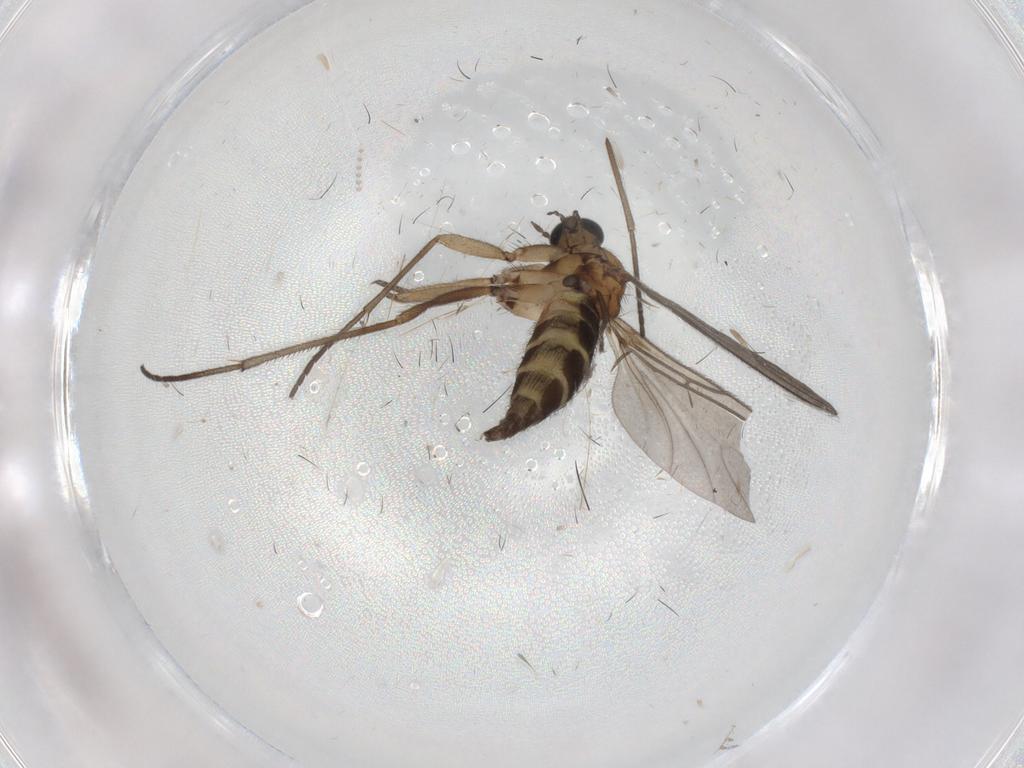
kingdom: Animalia
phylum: Arthropoda
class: Insecta
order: Diptera
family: Cecidomyiidae
